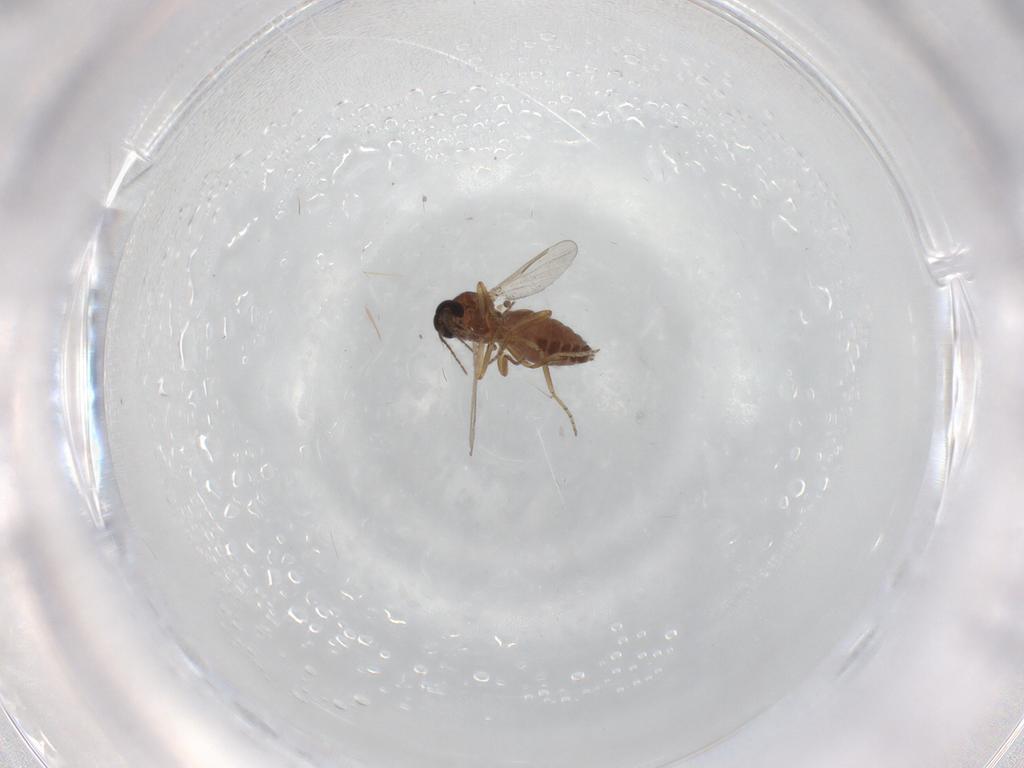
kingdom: Animalia
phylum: Arthropoda
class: Insecta
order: Diptera
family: Ceratopogonidae
